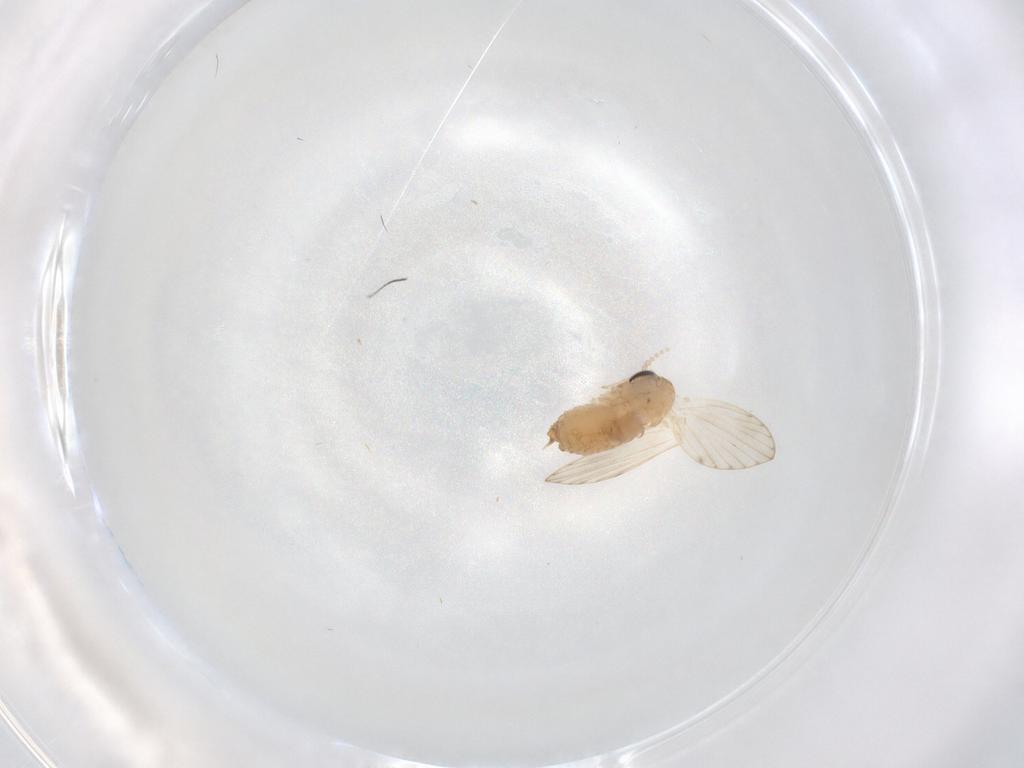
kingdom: Animalia
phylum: Arthropoda
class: Insecta
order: Diptera
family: Psychodidae
